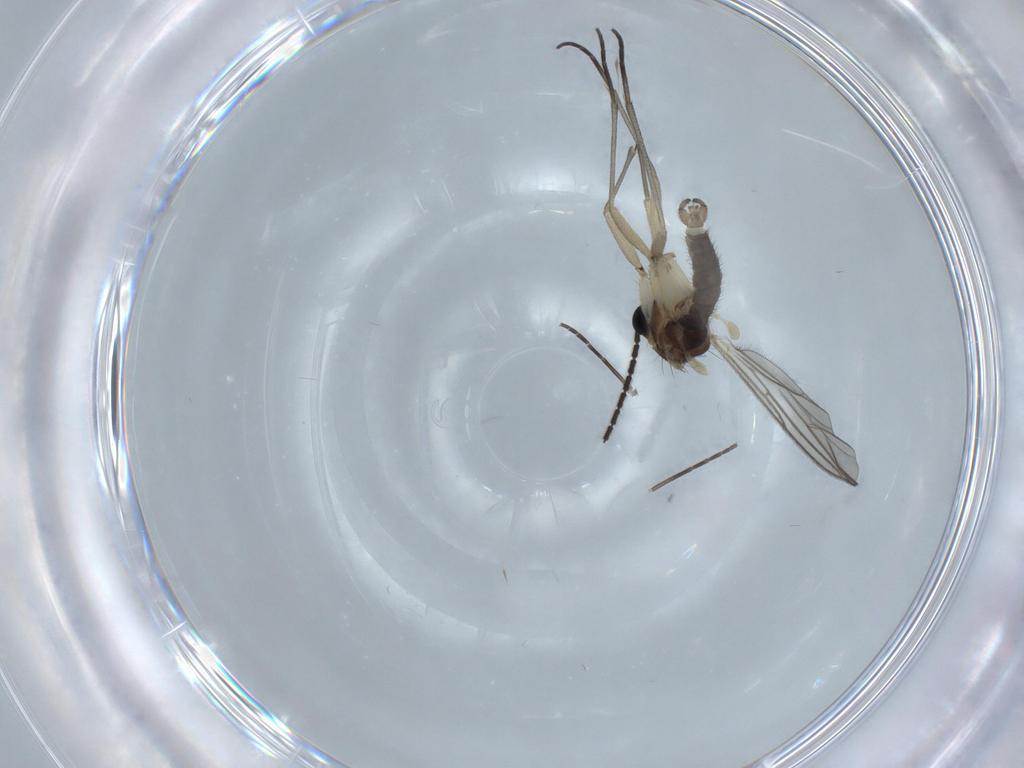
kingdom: Animalia
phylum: Arthropoda
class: Insecta
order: Diptera
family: Sciaridae
